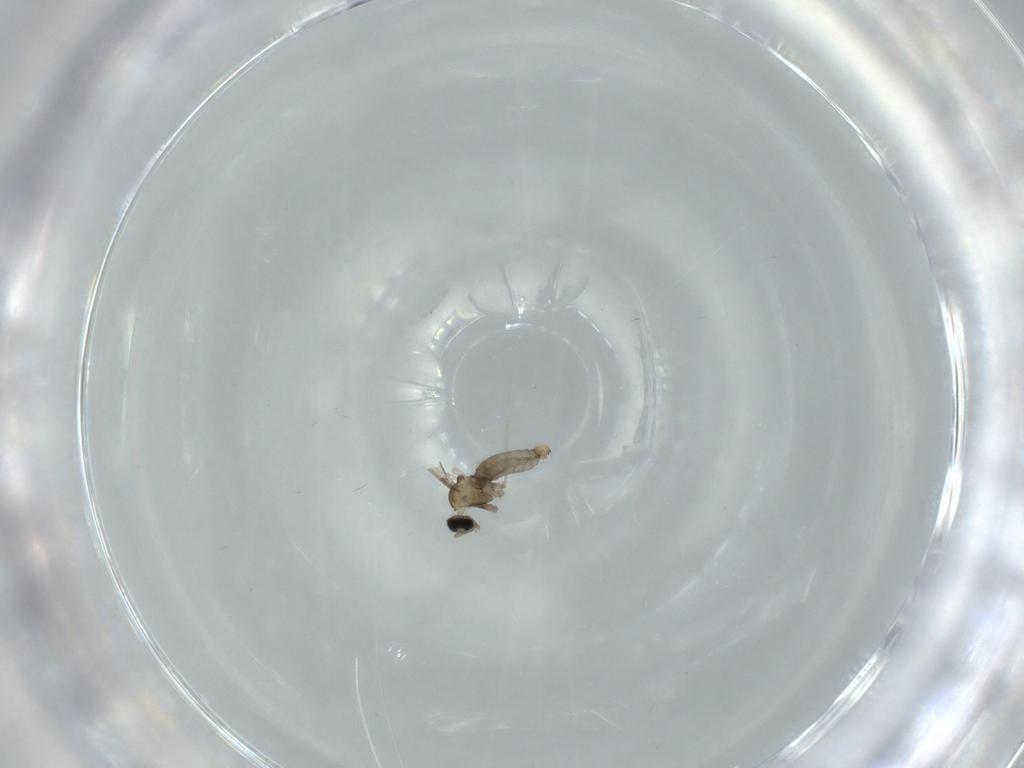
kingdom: Animalia
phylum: Arthropoda
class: Insecta
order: Diptera
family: Cecidomyiidae
